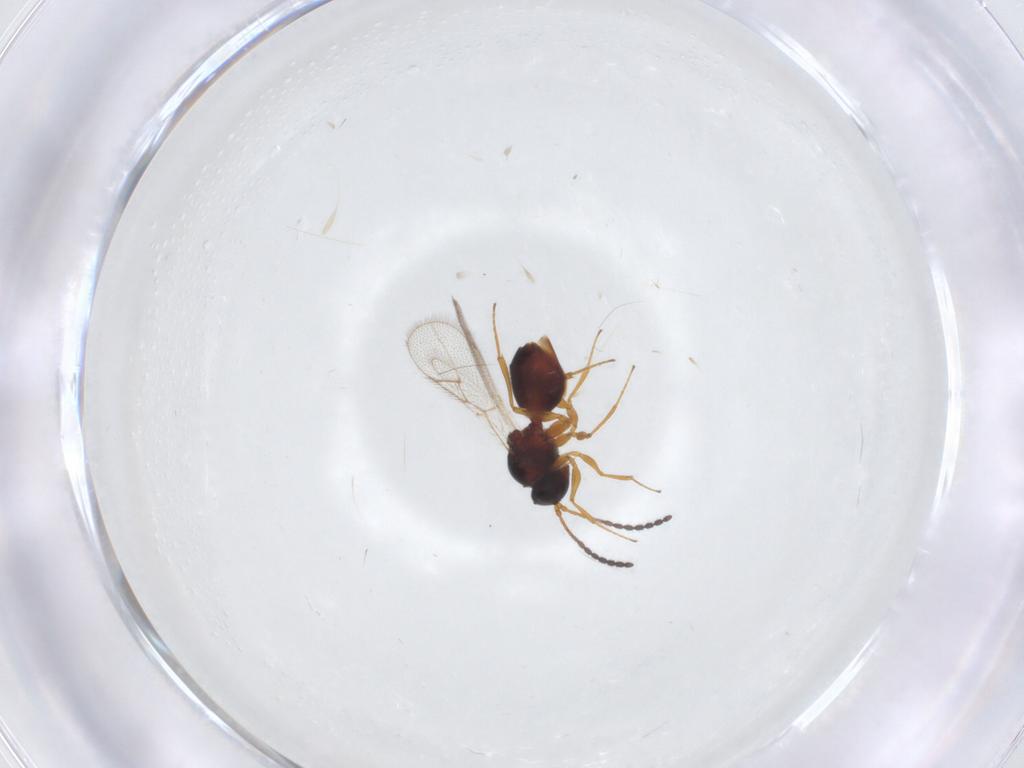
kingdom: Animalia
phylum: Arthropoda
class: Insecta
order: Hymenoptera
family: Figitidae
